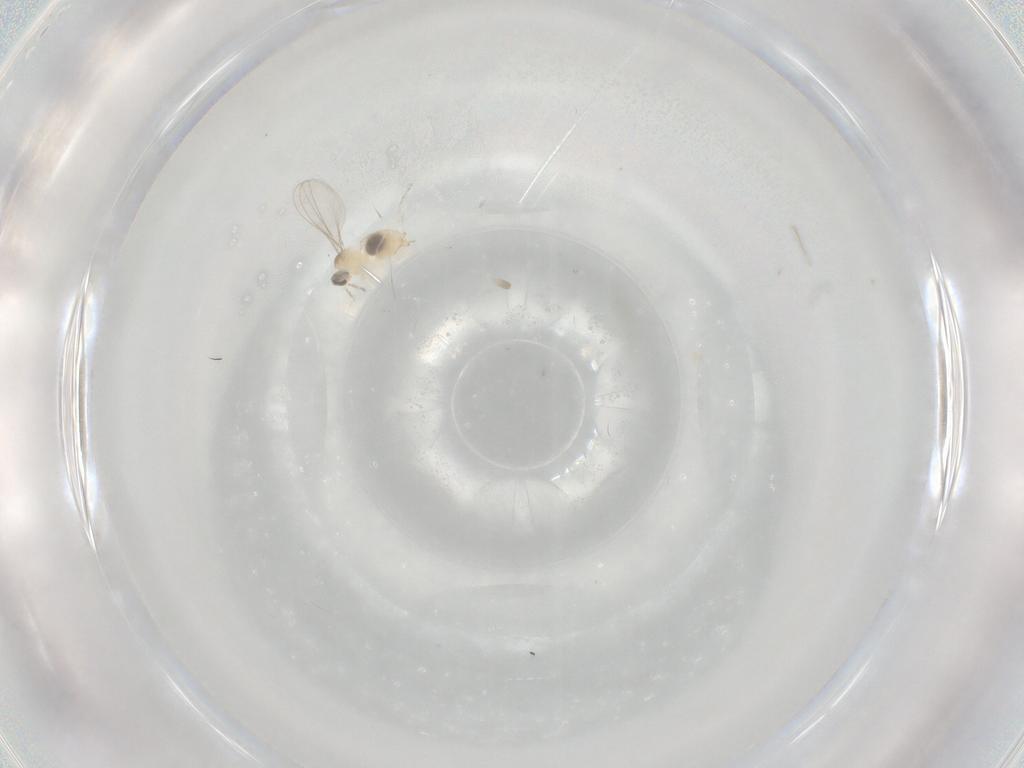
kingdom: Animalia
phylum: Arthropoda
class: Insecta
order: Diptera
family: Cecidomyiidae
